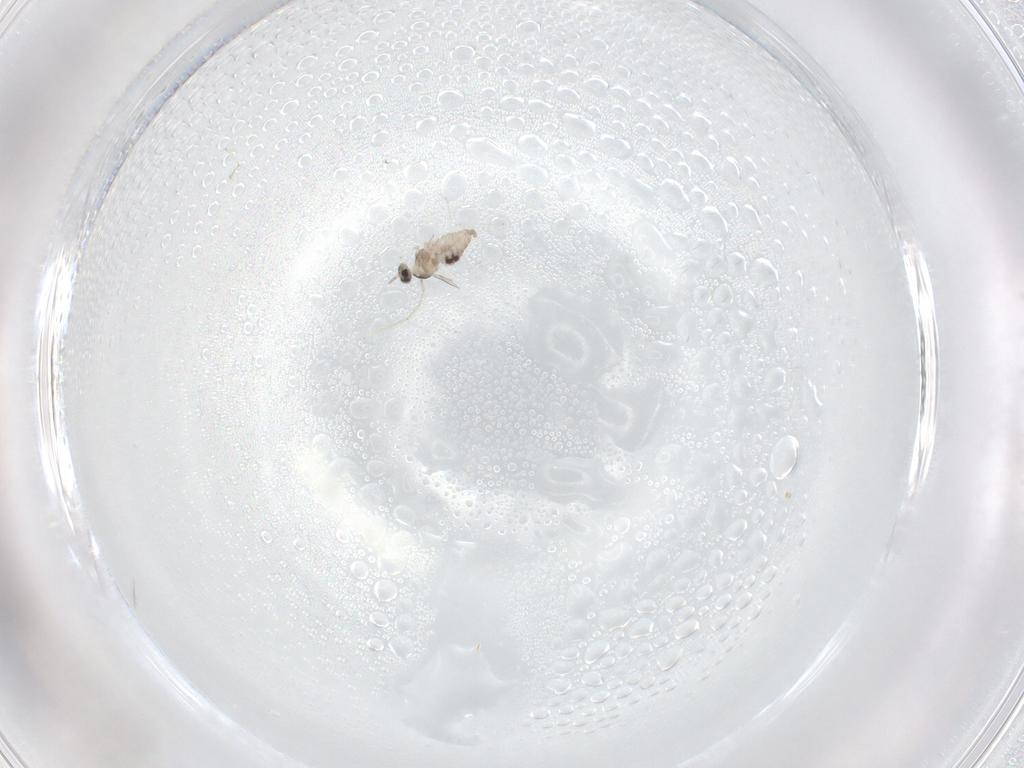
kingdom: Animalia
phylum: Arthropoda
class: Insecta
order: Diptera
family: Cecidomyiidae
